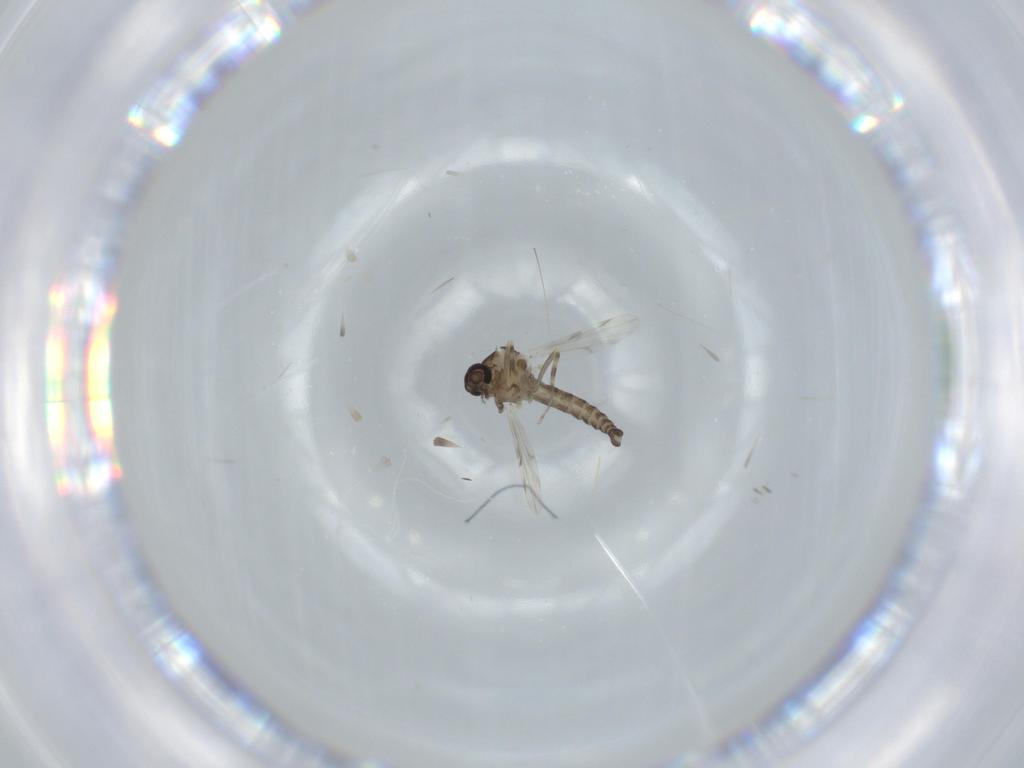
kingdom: Animalia
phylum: Arthropoda
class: Insecta
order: Diptera
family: Ceratopogonidae
